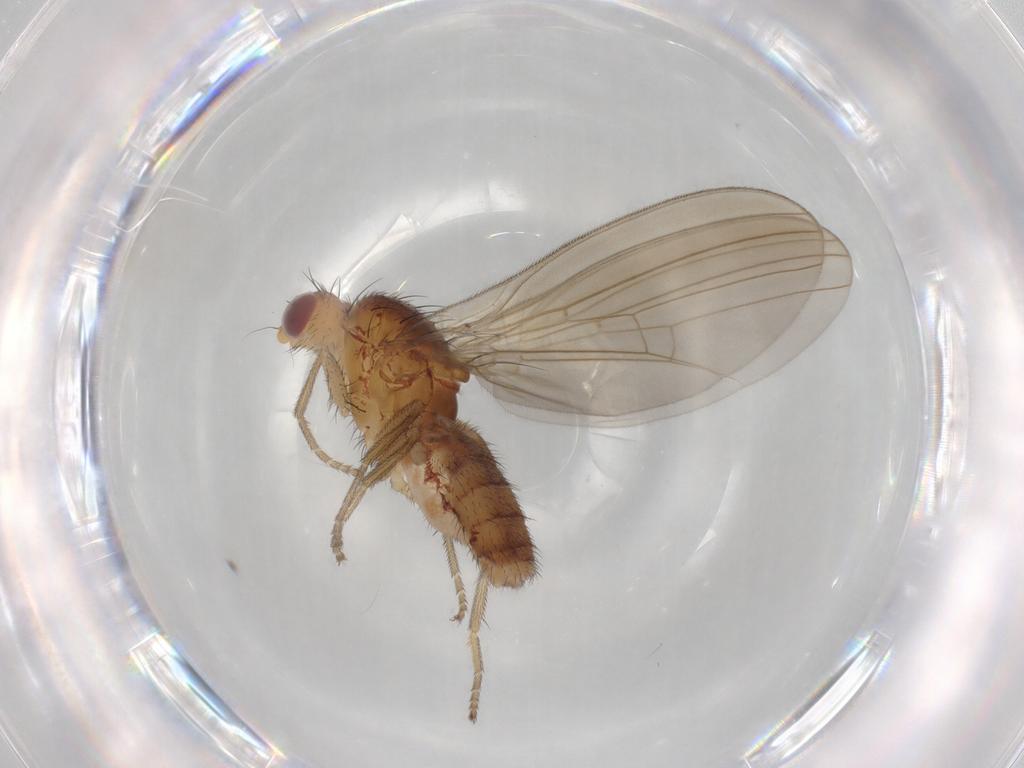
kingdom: Animalia
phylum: Arthropoda
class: Insecta
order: Diptera
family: Natalimyzidae
